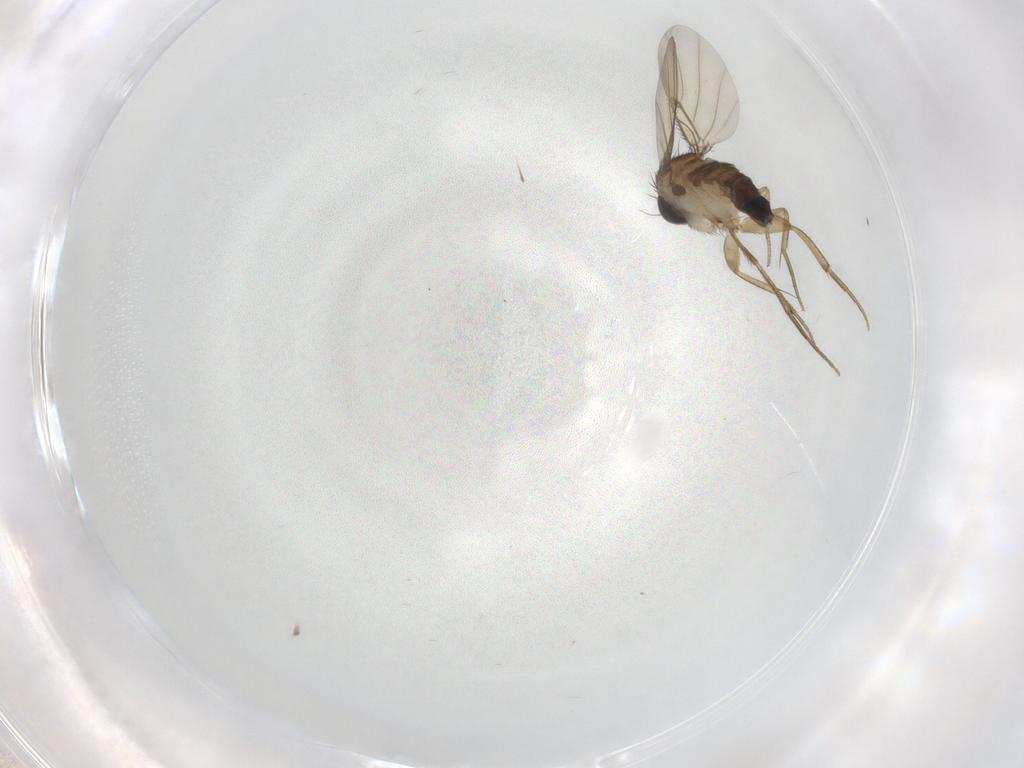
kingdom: Animalia
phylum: Arthropoda
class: Insecta
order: Diptera
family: Phoridae
